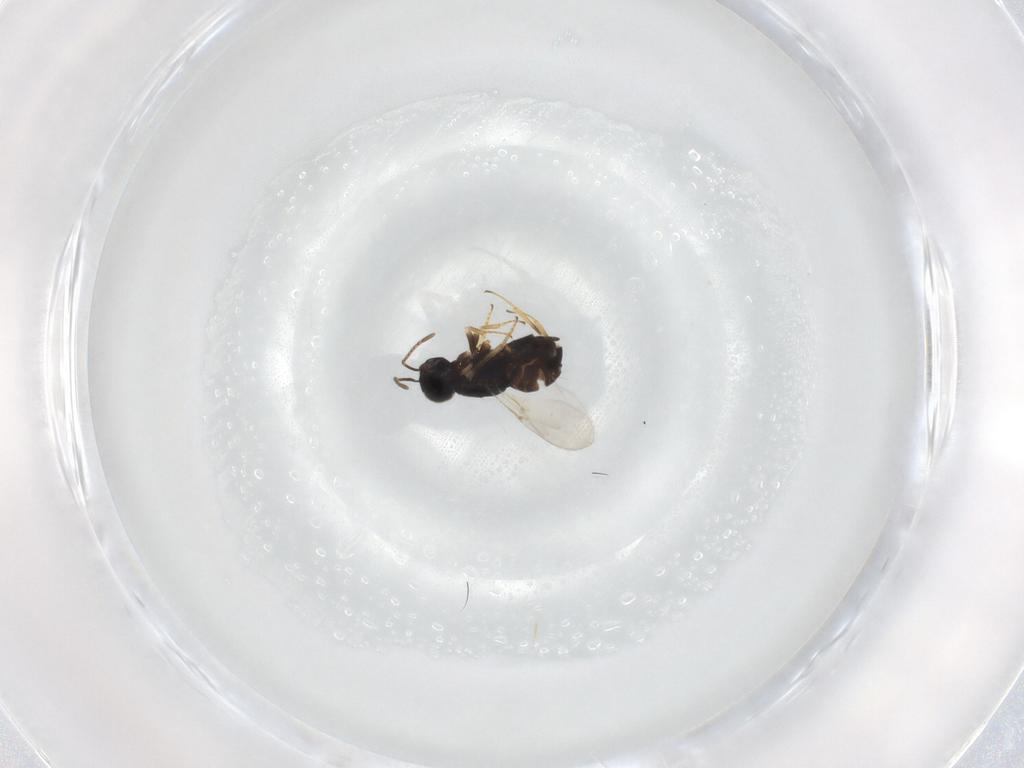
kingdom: Animalia
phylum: Arthropoda
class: Insecta
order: Hymenoptera
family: Encyrtidae
